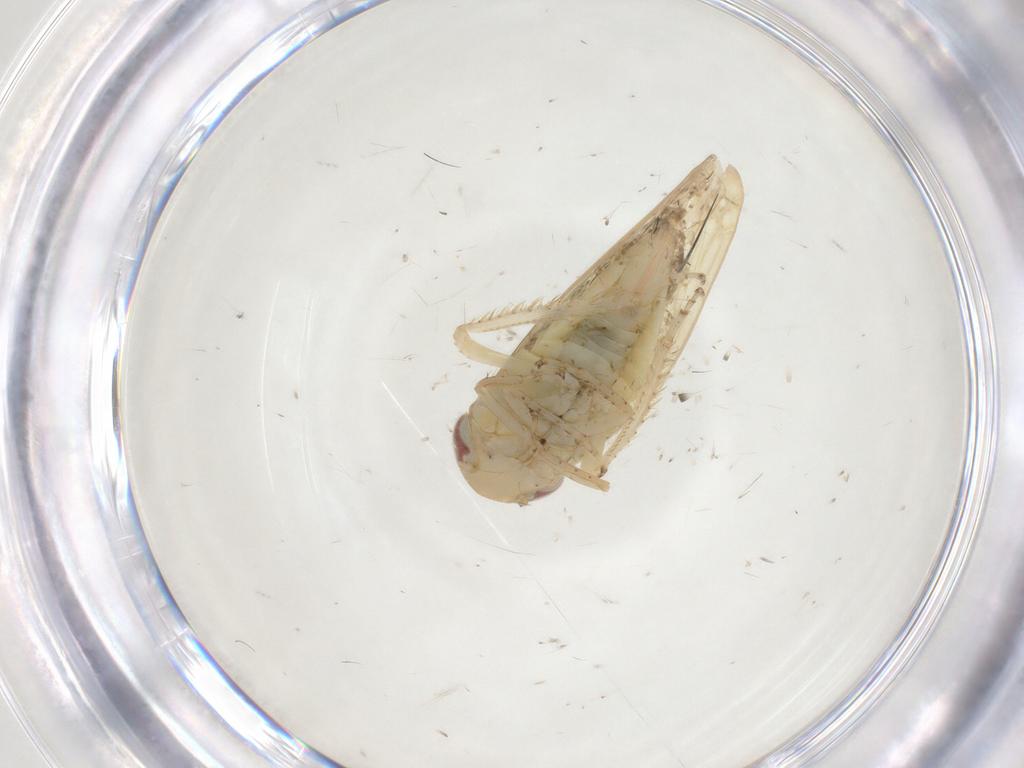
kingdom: Animalia
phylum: Arthropoda
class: Insecta
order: Hemiptera
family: Cicadellidae
